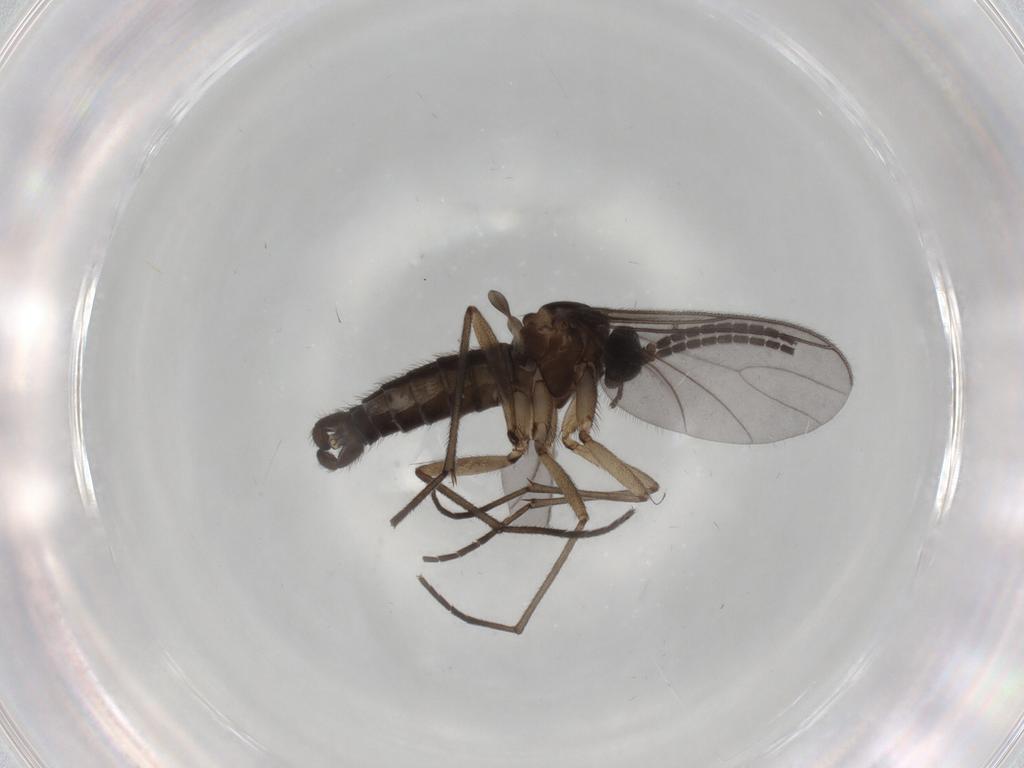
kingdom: Animalia
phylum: Arthropoda
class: Insecta
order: Diptera
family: Sciaridae
